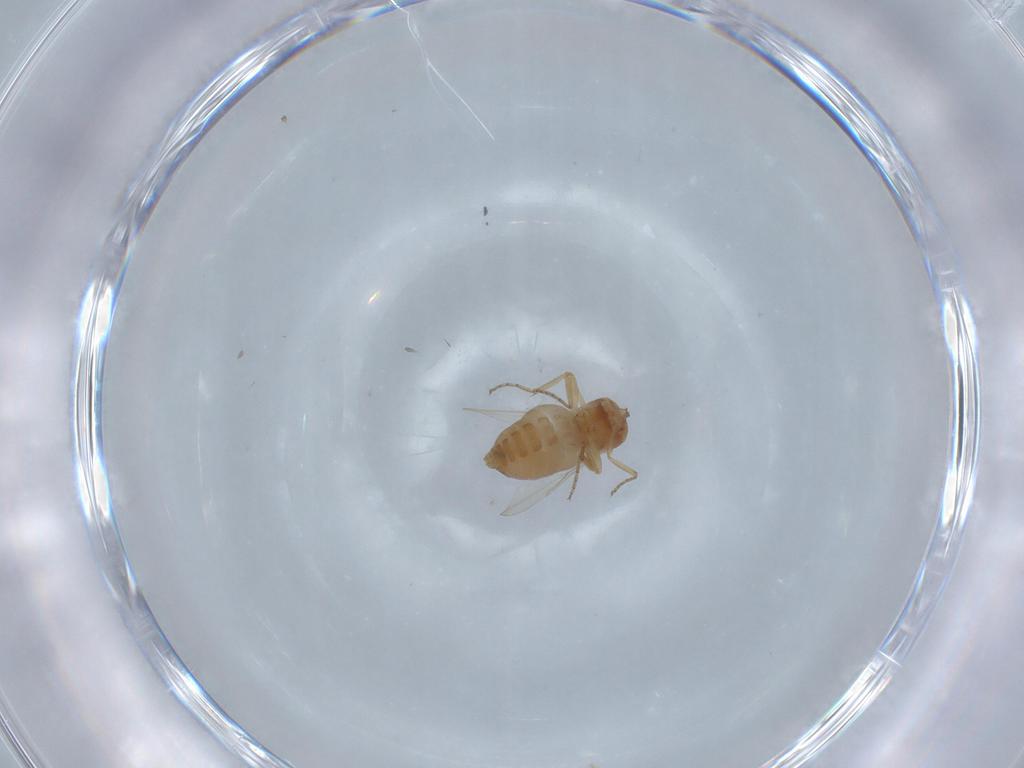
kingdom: Animalia
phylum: Arthropoda
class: Insecta
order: Diptera
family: Ceratopogonidae
